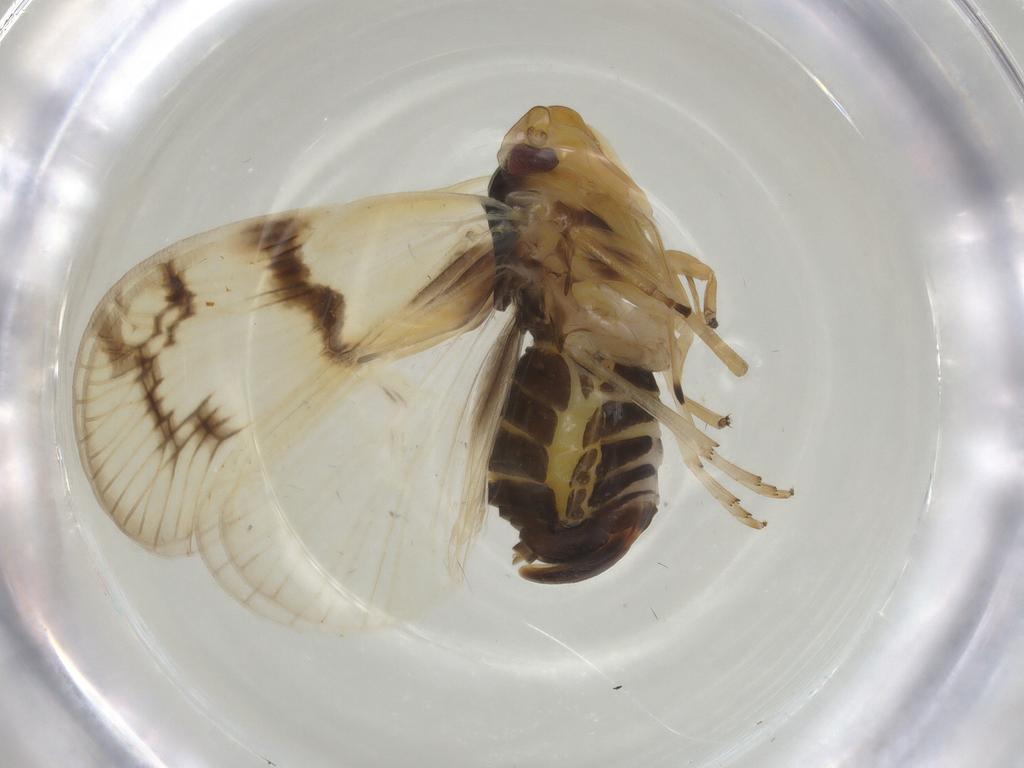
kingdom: Animalia
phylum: Arthropoda
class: Insecta
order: Hemiptera
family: Cixiidae
